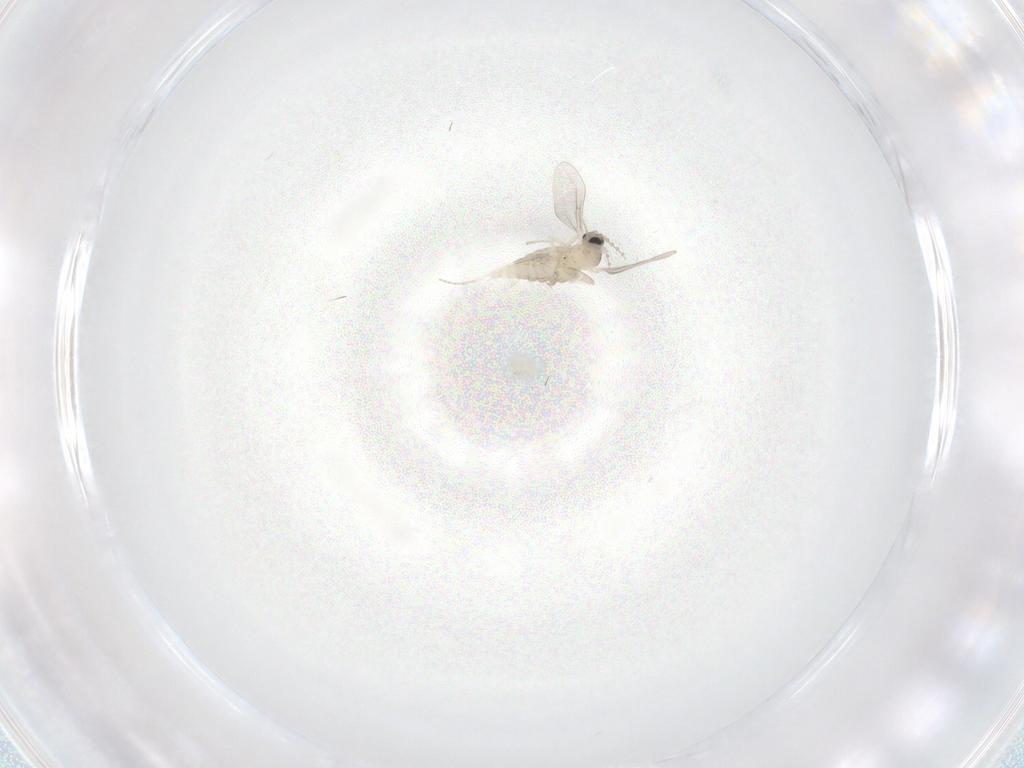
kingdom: Animalia
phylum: Arthropoda
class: Insecta
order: Diptera
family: Cecidomyiidae
